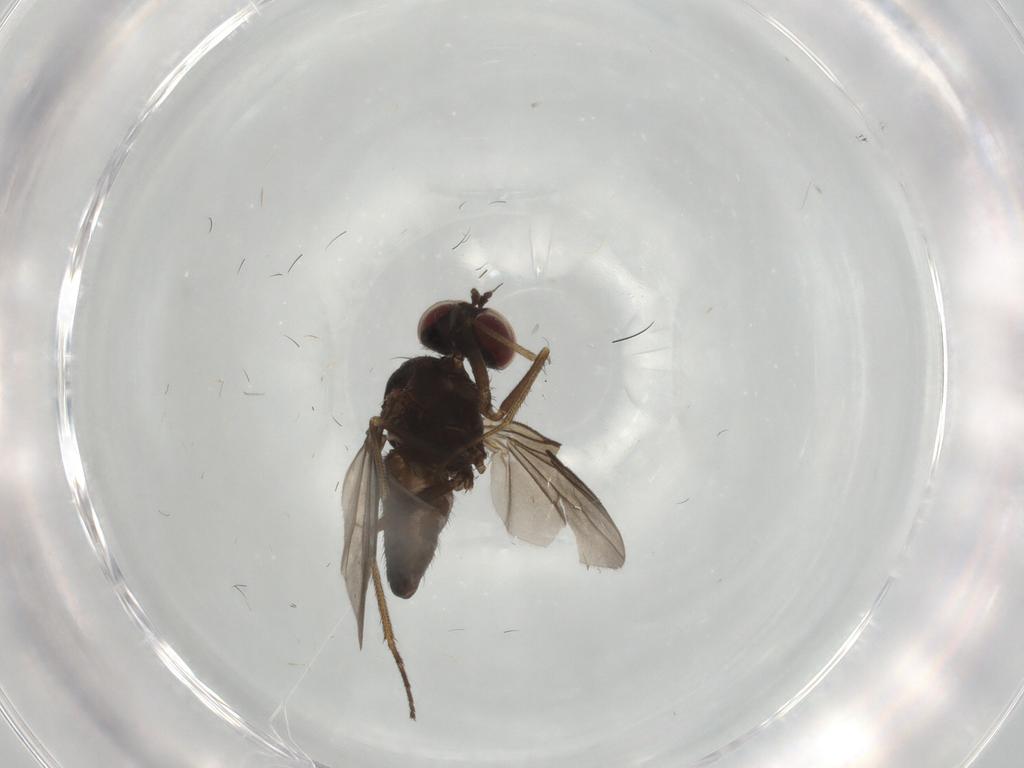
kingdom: Animalia
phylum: Arthropoda
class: Insecta
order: Diptera
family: Dolichopodidae
